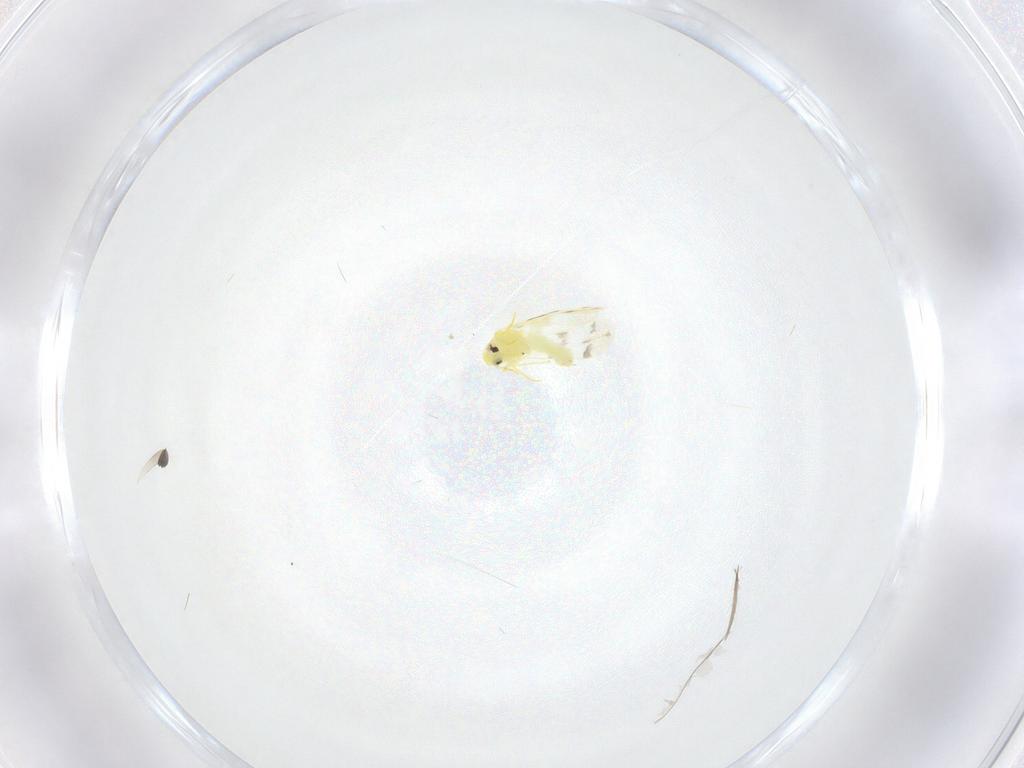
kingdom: Animalia
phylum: Arthropoda
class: Insecta
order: Hemiptera
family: Aleyrodidae
